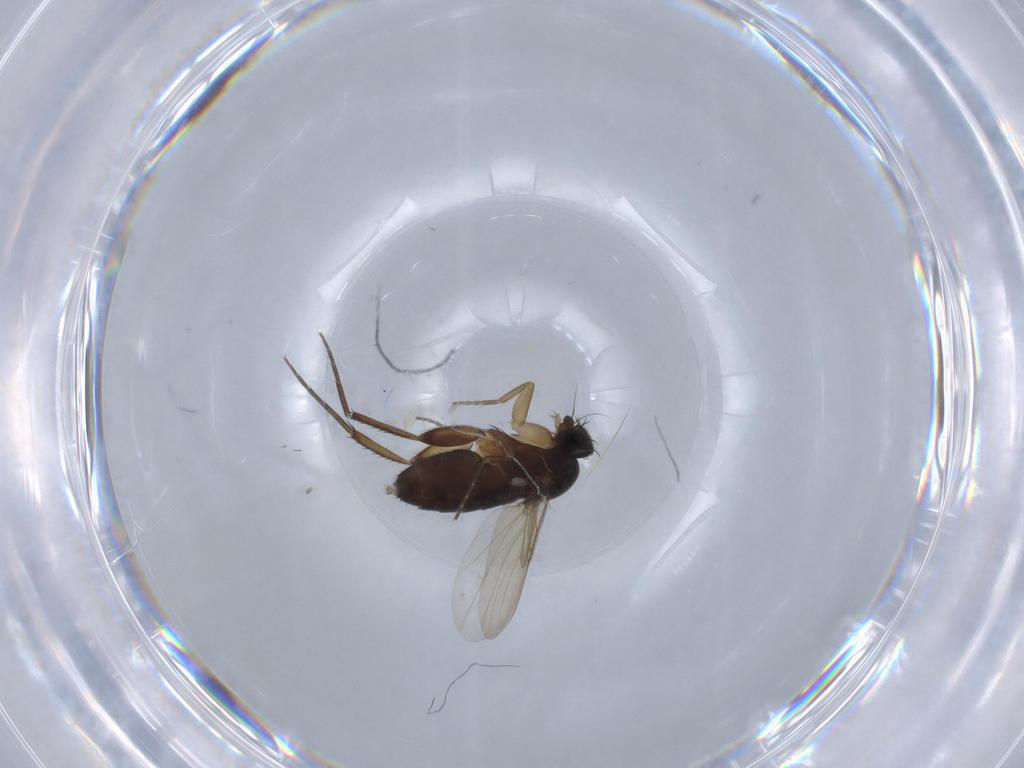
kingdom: Animalia
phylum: Arthropoda
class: Insecta
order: Diptera
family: Phoridae
